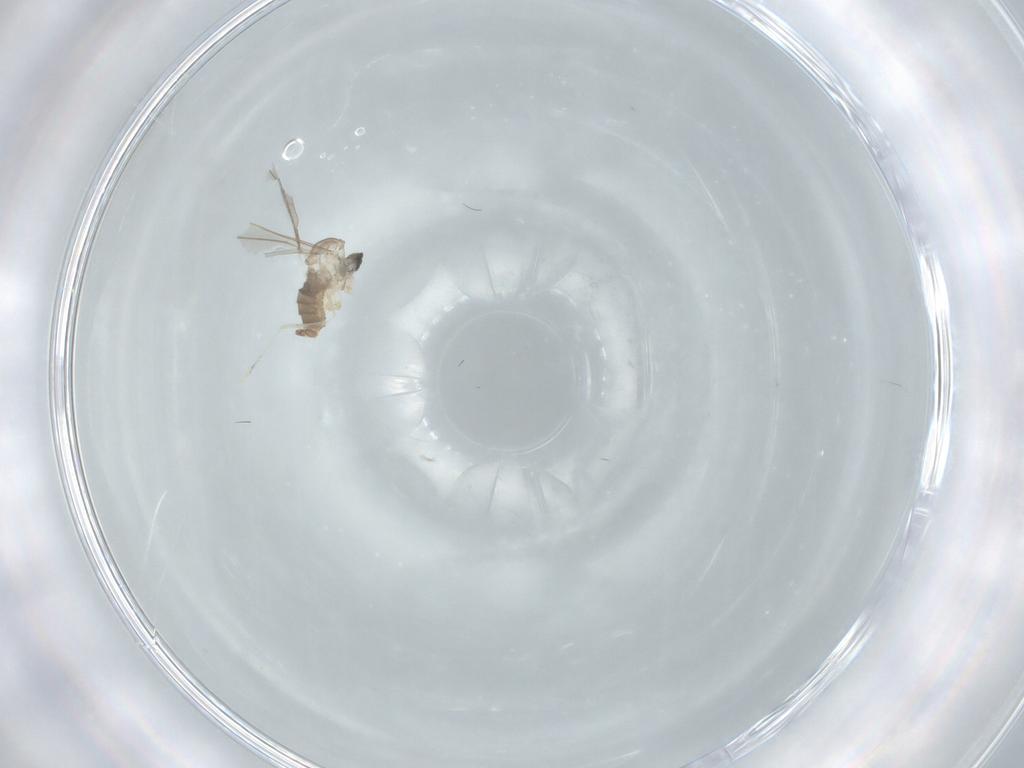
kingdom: Animalia
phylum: Arthropoda
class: Insecta
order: Diptera
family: Cecidomyiidae
